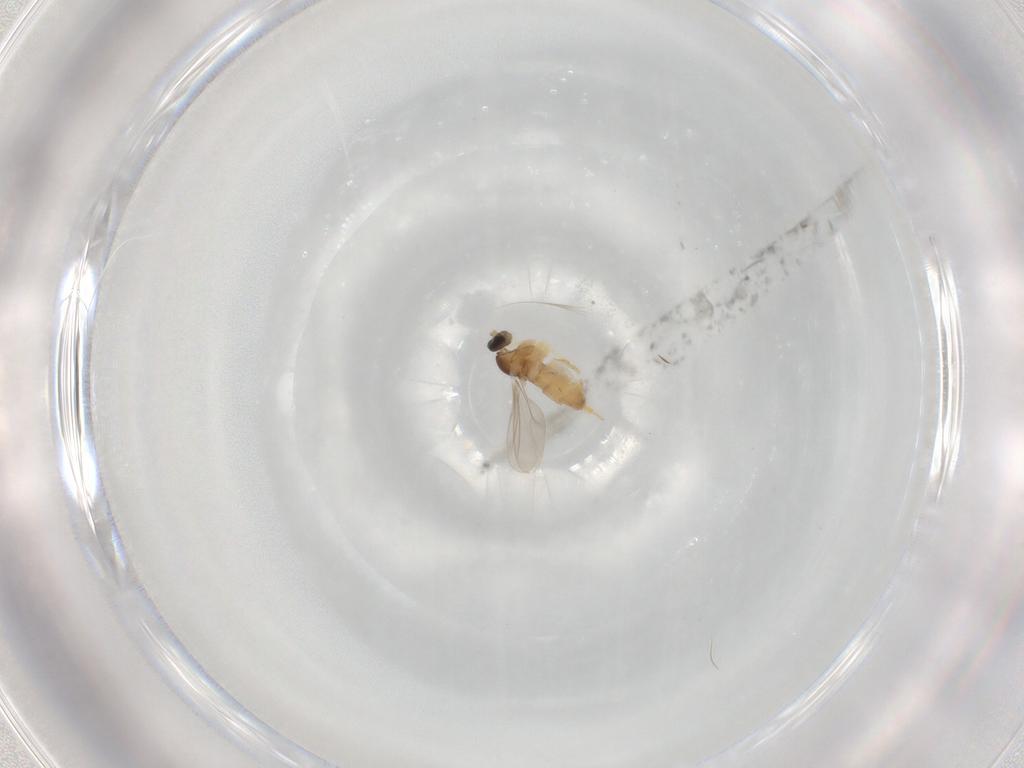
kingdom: Animalia
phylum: Arthropoda
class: Insecta
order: Diptera
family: Cecidomyiidae
